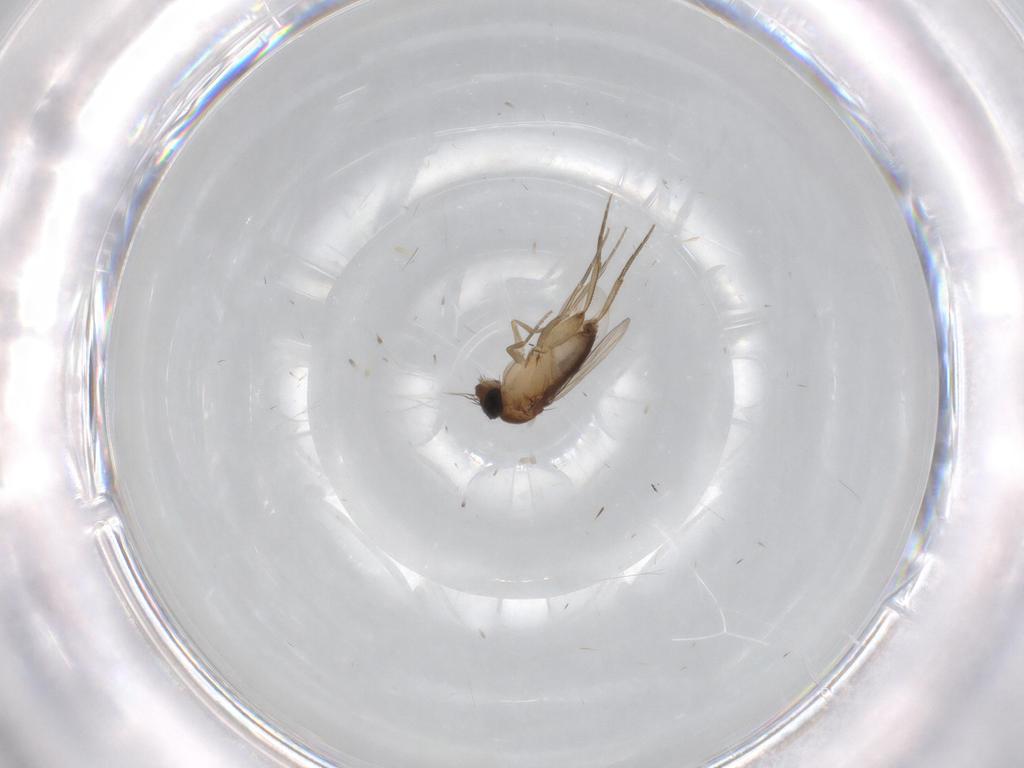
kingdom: Animalia
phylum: Arthropoda
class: Insecta
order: Diptera
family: Phoridae
